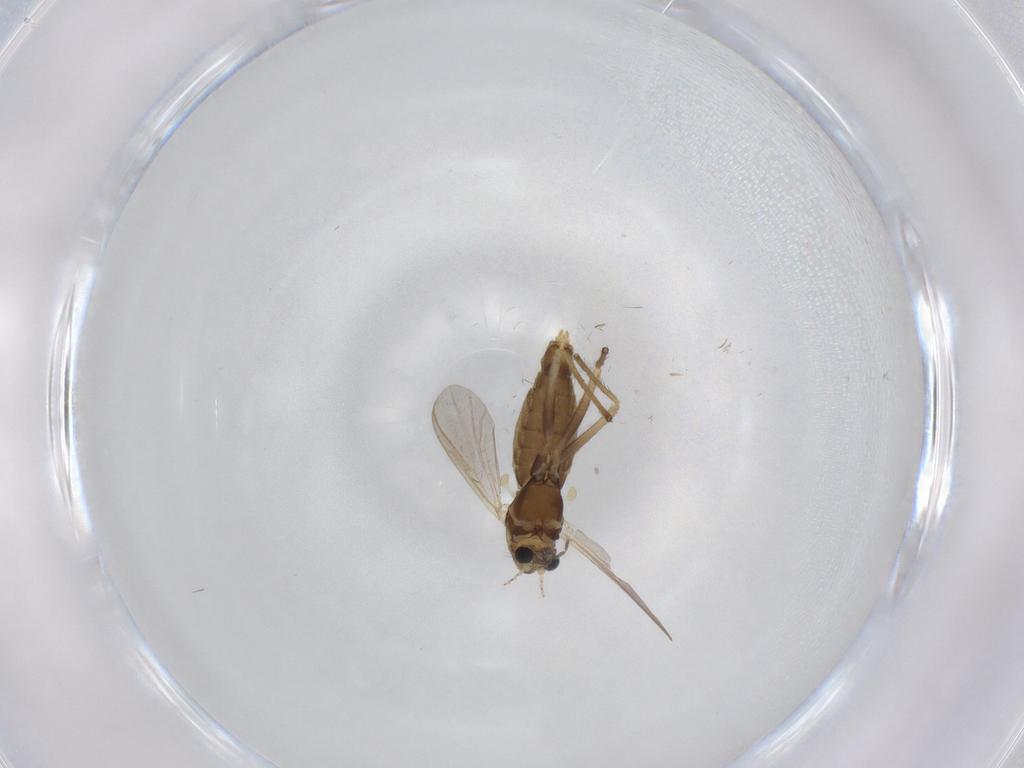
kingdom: Animalia
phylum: Arthropoda
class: Insecta
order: Diptera
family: Chironomidae
